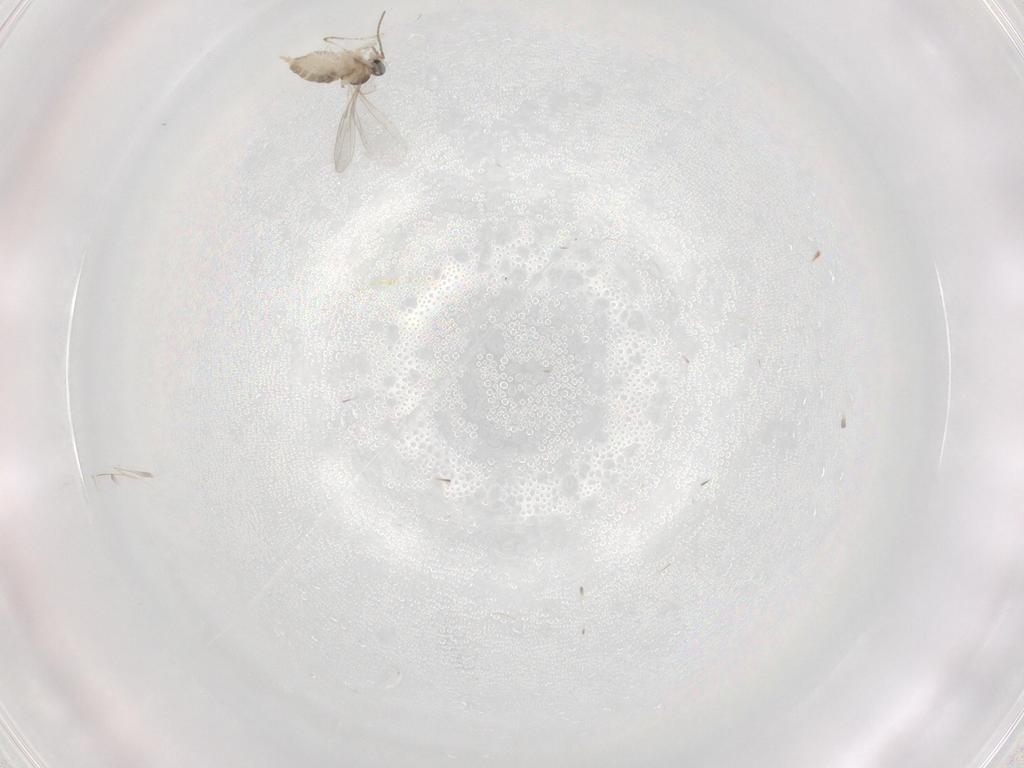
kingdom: Animalia
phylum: Arthropoda
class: Insecta
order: Diptera
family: Cecidomyiidae
